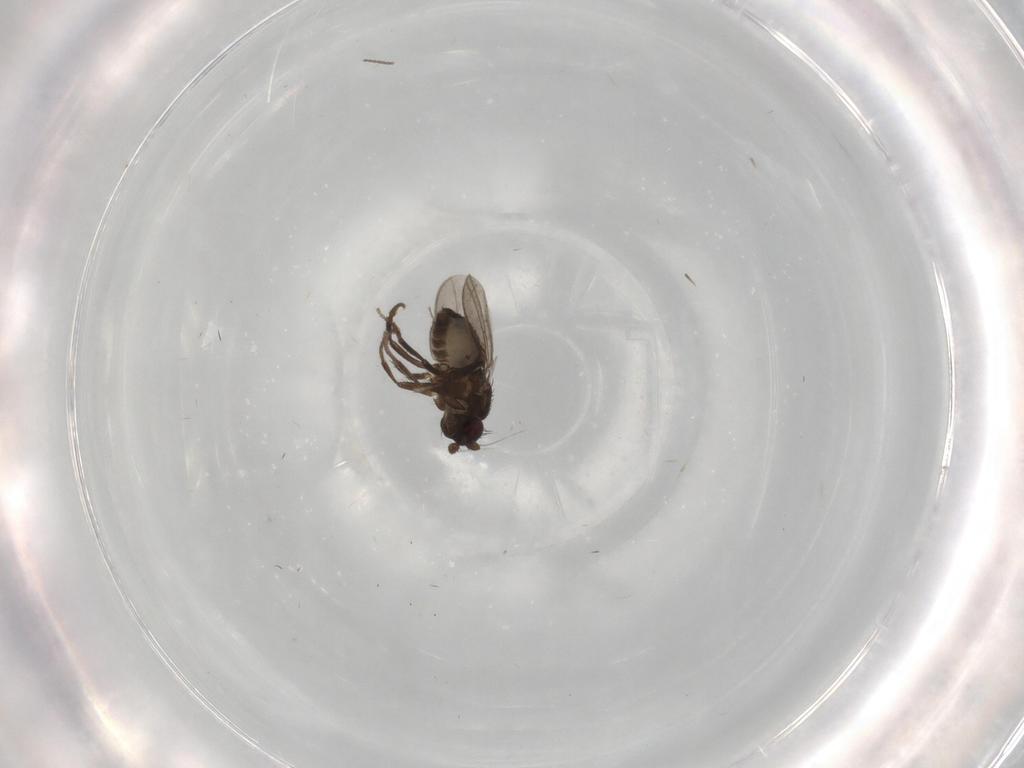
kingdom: Animalia
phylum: Arthropoda
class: Insecta
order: Diptera
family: Cecidomyiidae
